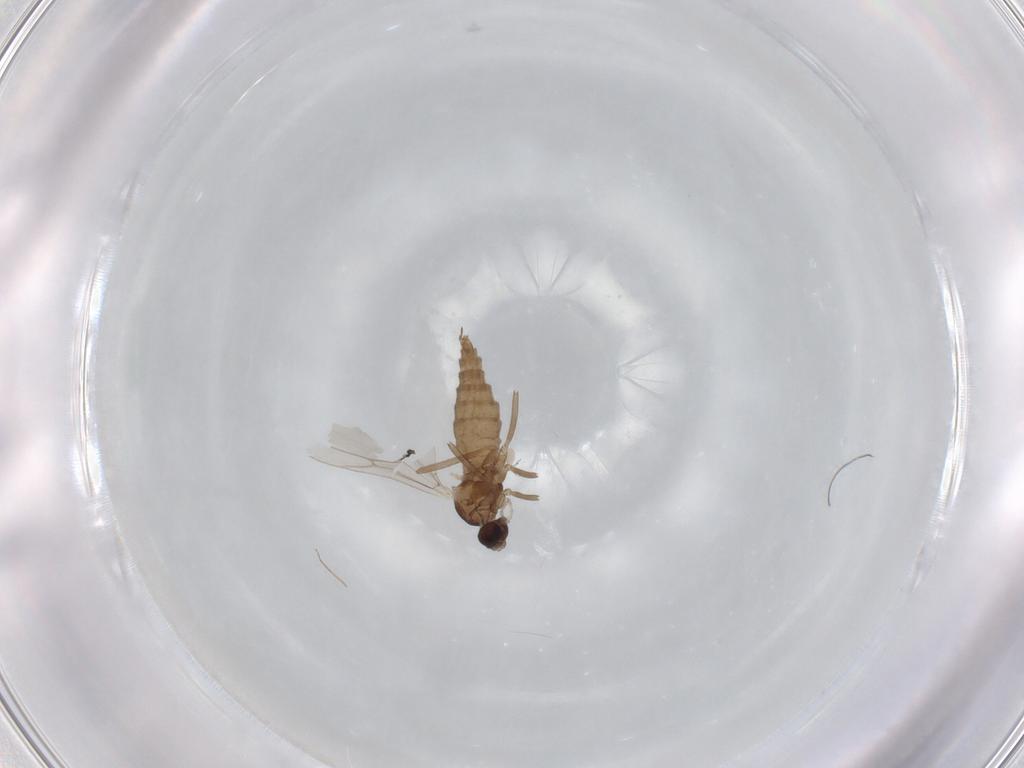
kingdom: Animalia
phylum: Arthropoda
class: Insecta
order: Diptera
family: Cecidomyiidae
